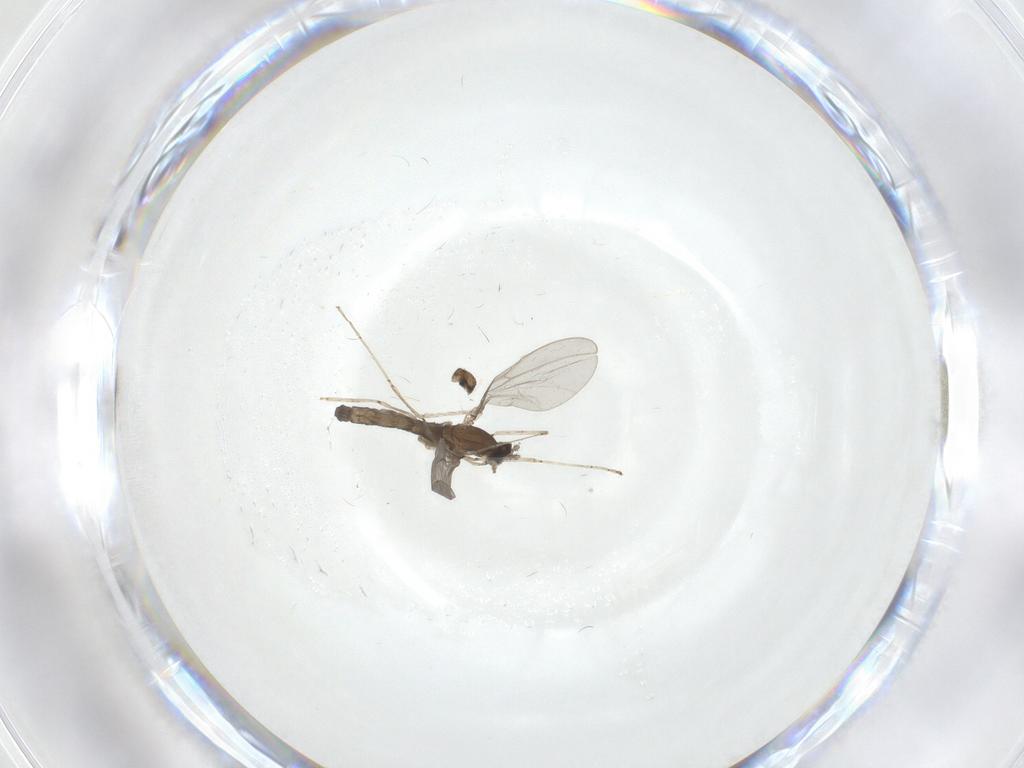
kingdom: Animalia
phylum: Arthropoda
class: Insecta
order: Diptera
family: Cecidomyiidae
